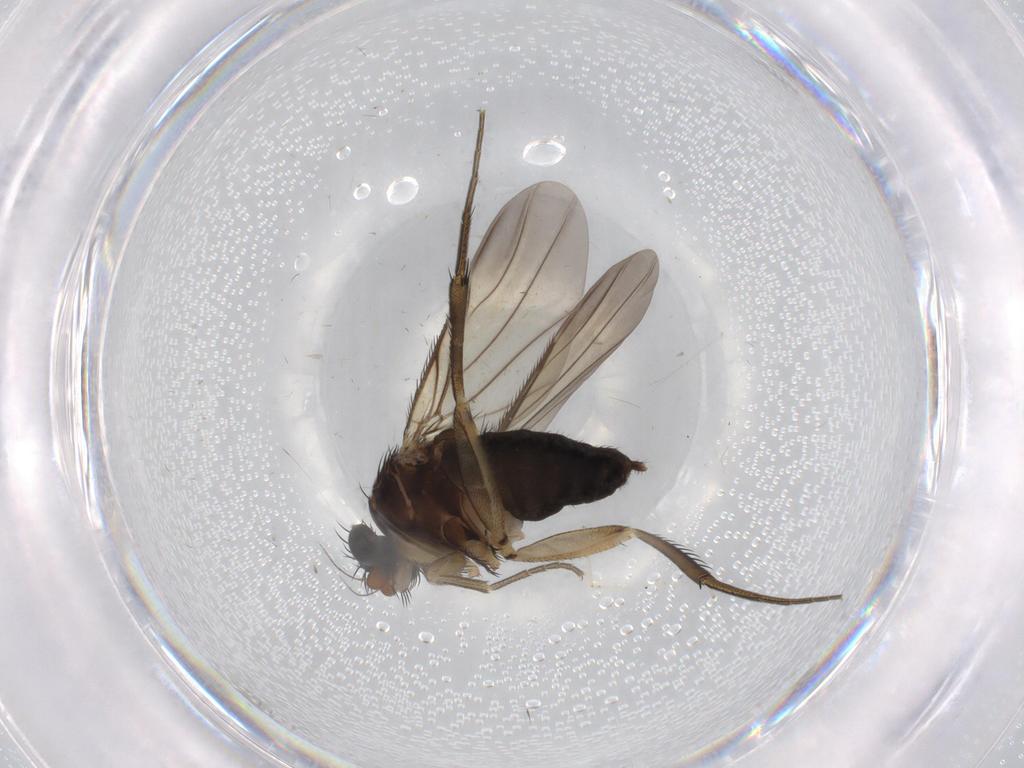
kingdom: Animalia
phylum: Arthropoda
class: Insecta
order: Diptera
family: Phoridae
